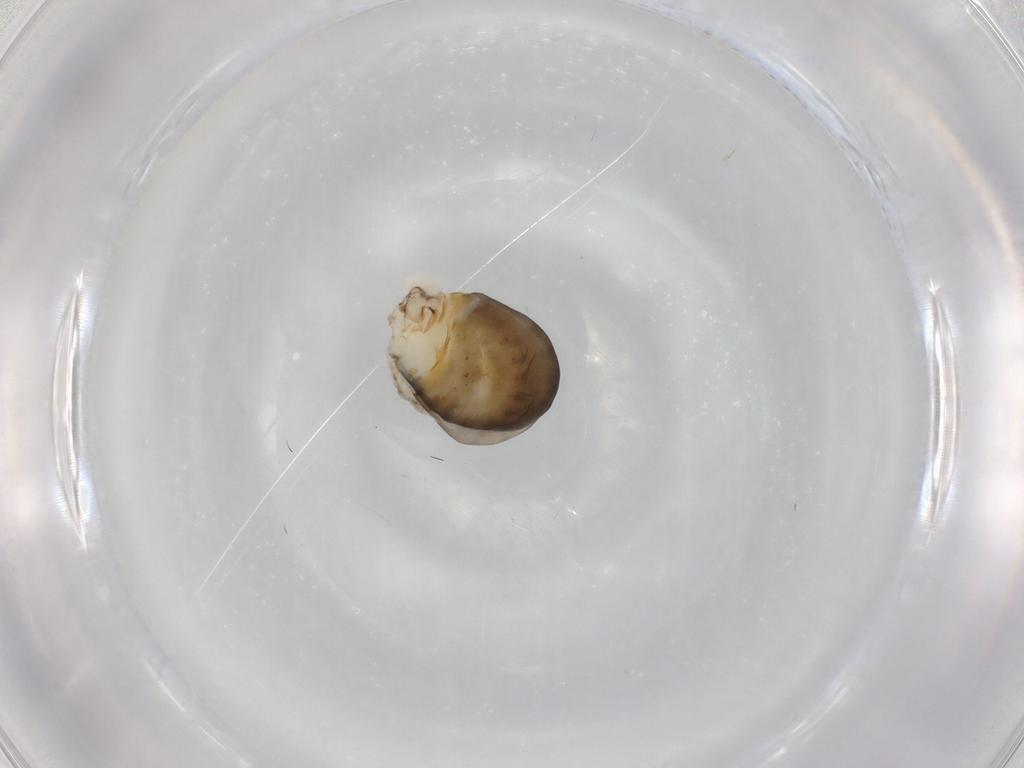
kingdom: Animalia
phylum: Arthropoda
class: Insecta
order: Hymenoptera
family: Dryinidae
